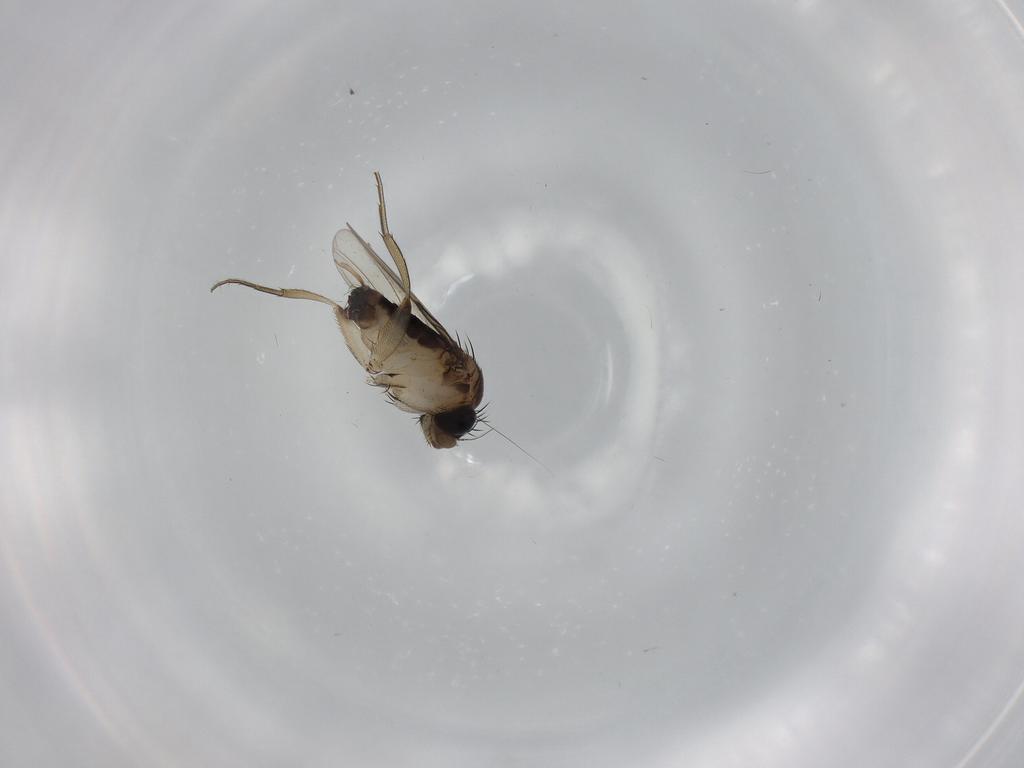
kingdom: Animalia
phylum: Arthropoda
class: Insecta
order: Diptera
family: Phoridae
